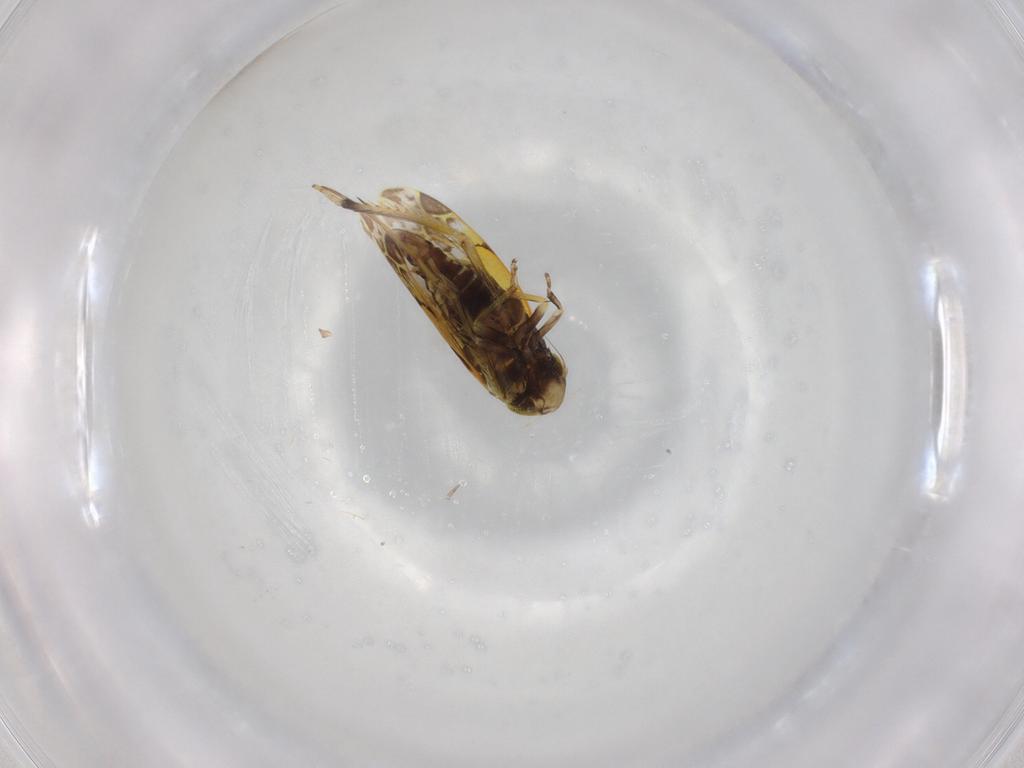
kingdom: Animalia
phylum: Arthropoda
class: Insecta
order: Hemiptera
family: Cicadellidae
